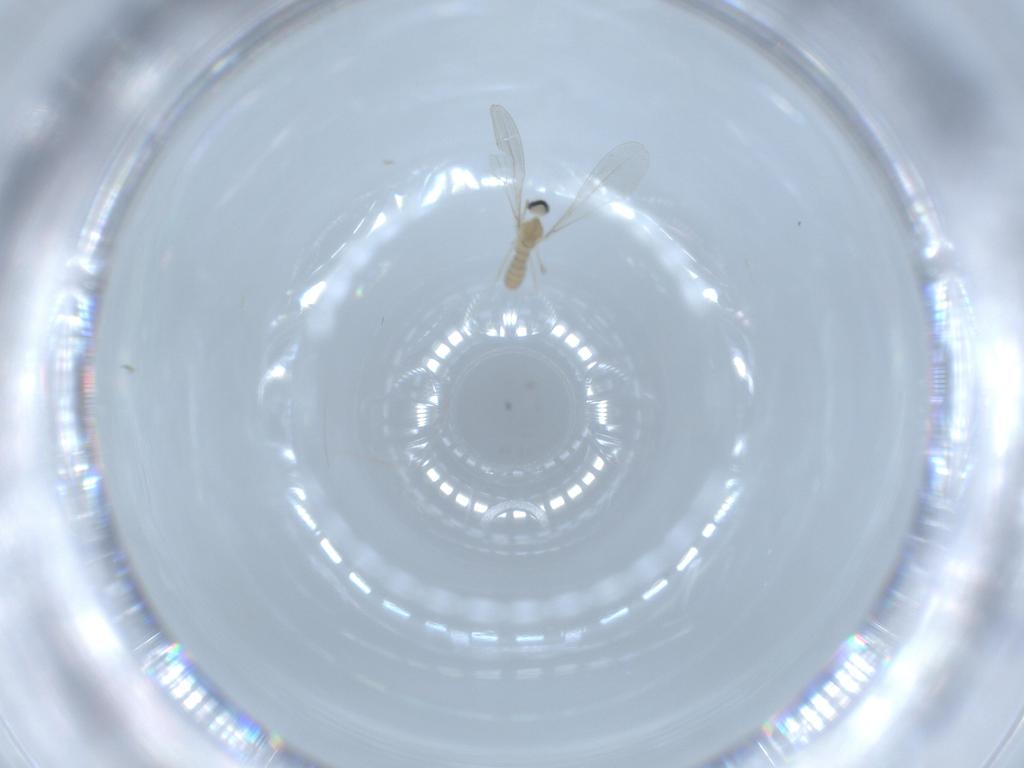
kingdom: Animalia
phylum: Arthropoda
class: Insecta
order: Diptera
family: Cecidomyiidae
